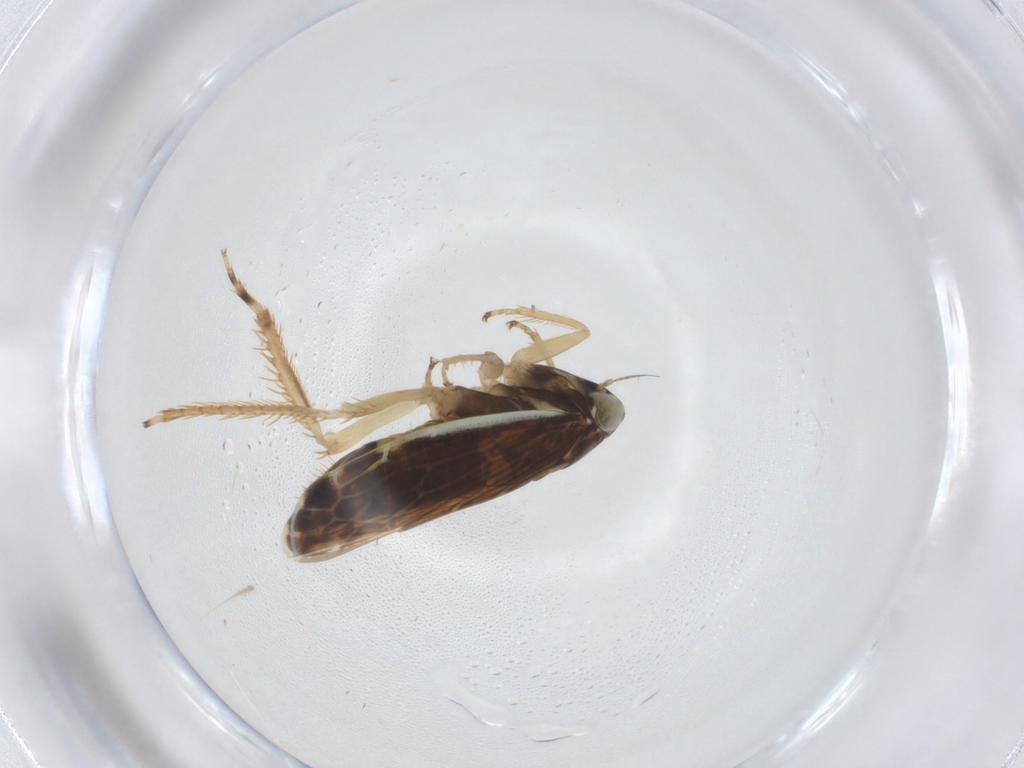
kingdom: Animalia
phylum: Arthropoda
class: Insecta
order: Hemiptera
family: Cicadellidae
